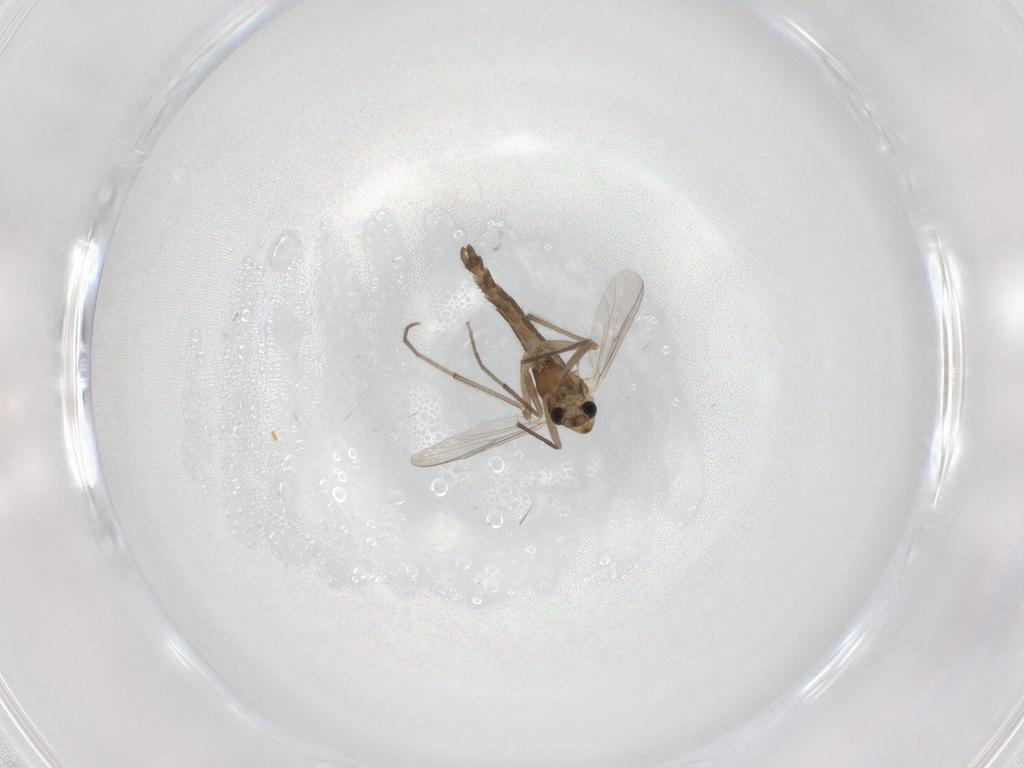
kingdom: Animalia
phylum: Arthropoda
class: Insecta
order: Diptera
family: Chironomidae
